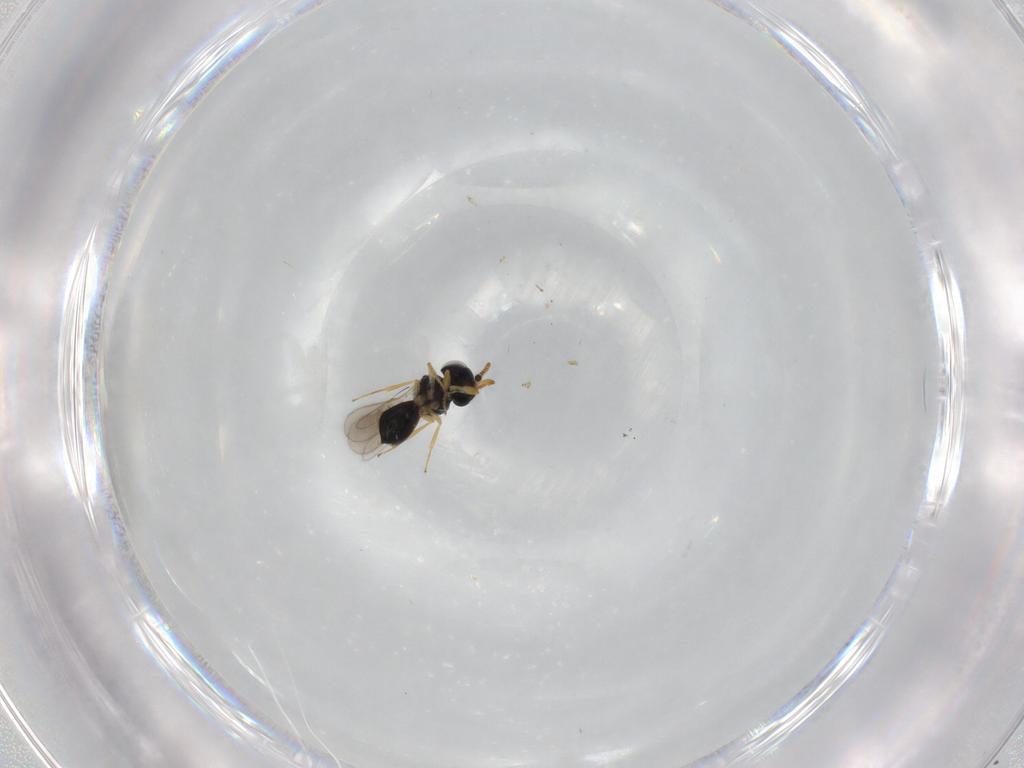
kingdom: Animalia
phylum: Arthropoda
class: Insecta
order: Hymenoptera
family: Scelionidae
